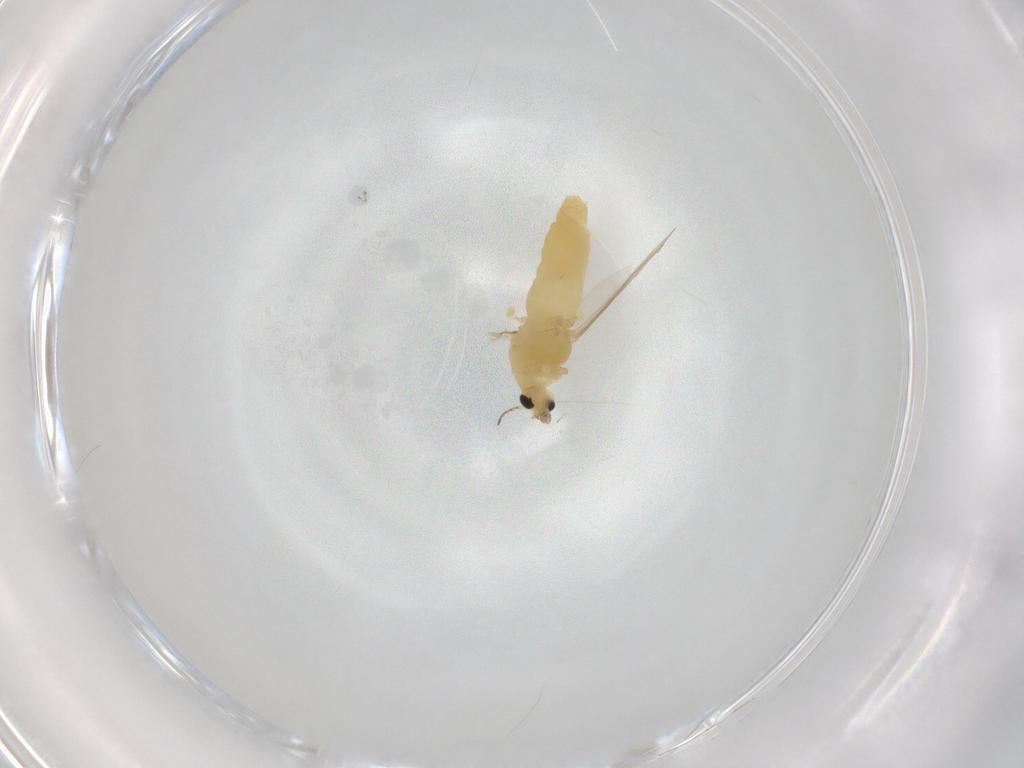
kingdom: Animalia
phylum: Arthropoda
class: Insecta
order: Diptera
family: Chironomidae
